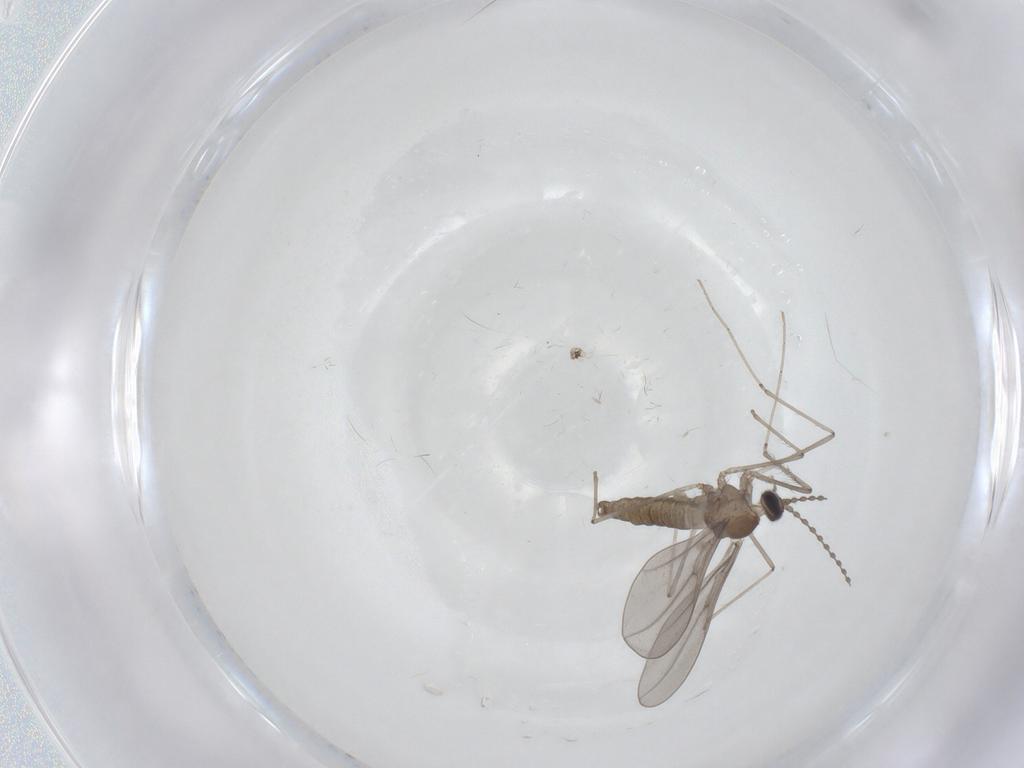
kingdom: Animalia
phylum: Arthropoda
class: Insecta
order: Diptera
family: Cecidomyiidae
